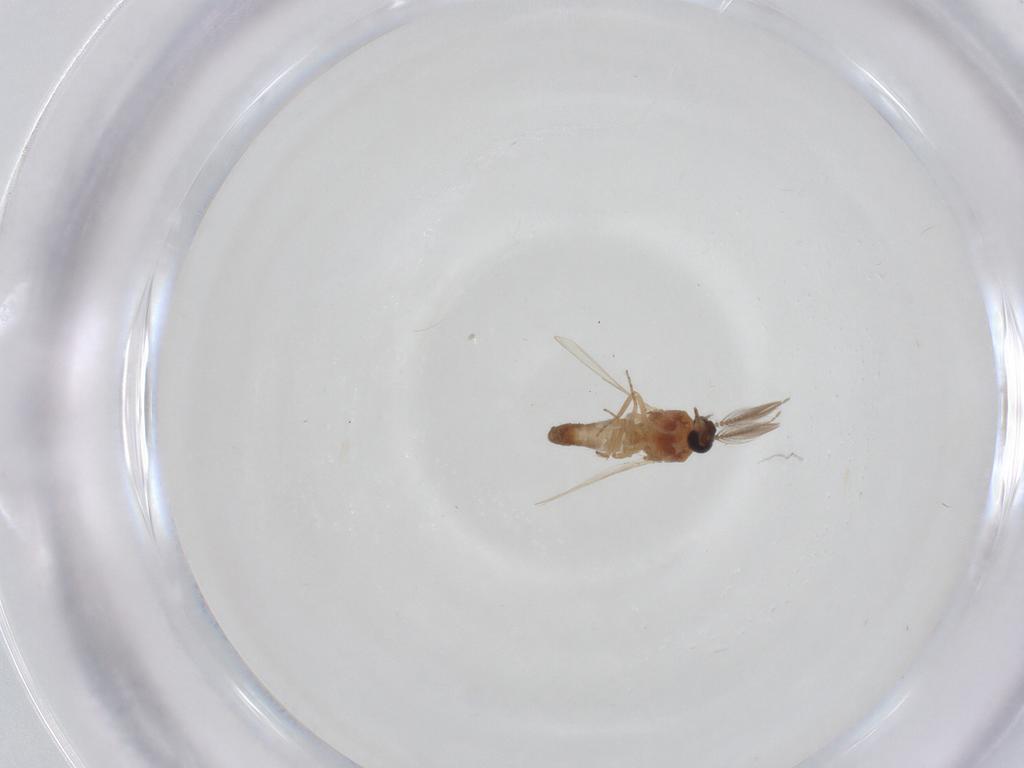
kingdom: Animalia
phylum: Arthropoda
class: Insecta
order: Diptera
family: Ceratopogonidae
